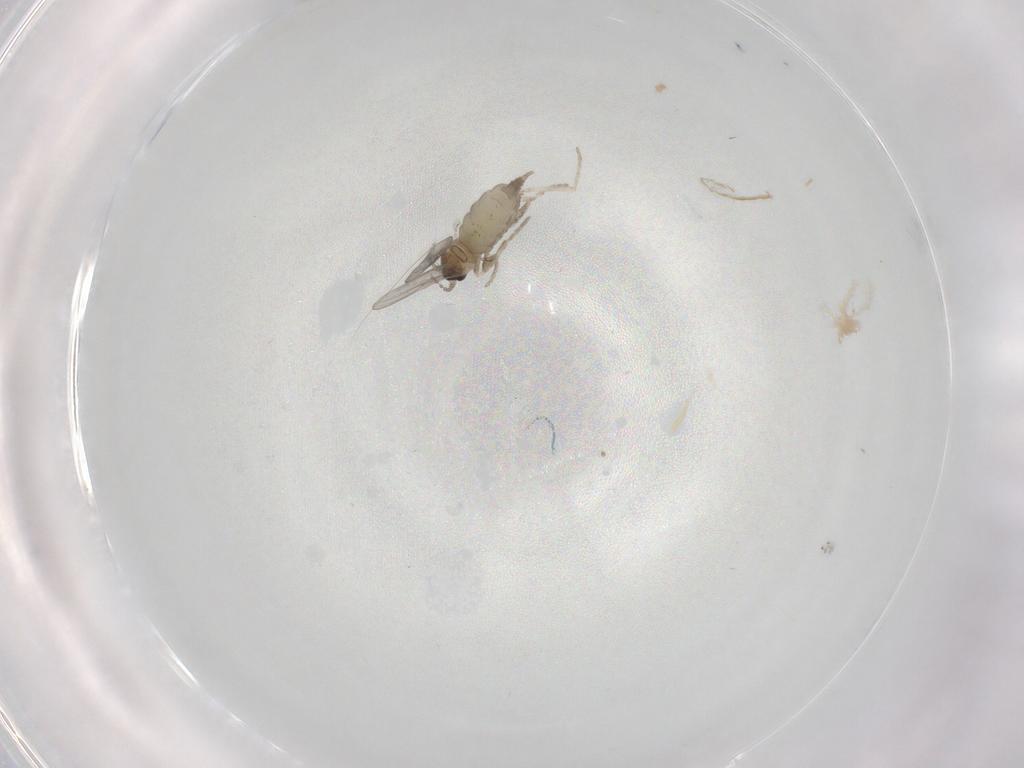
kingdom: Animalia
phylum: Arthropoda
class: Insecta
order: Diptera
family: Cecidomyiidae
